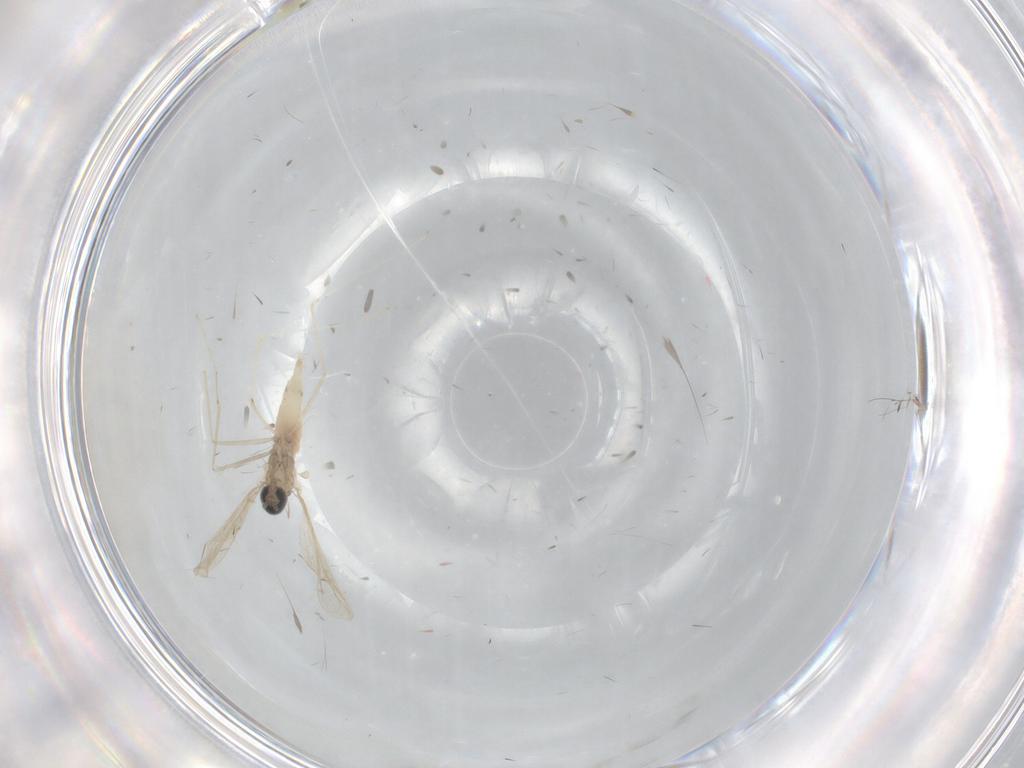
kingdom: Animalia
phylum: Arthropoda
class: Insecta
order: Diptera
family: Cecidomyiidae
